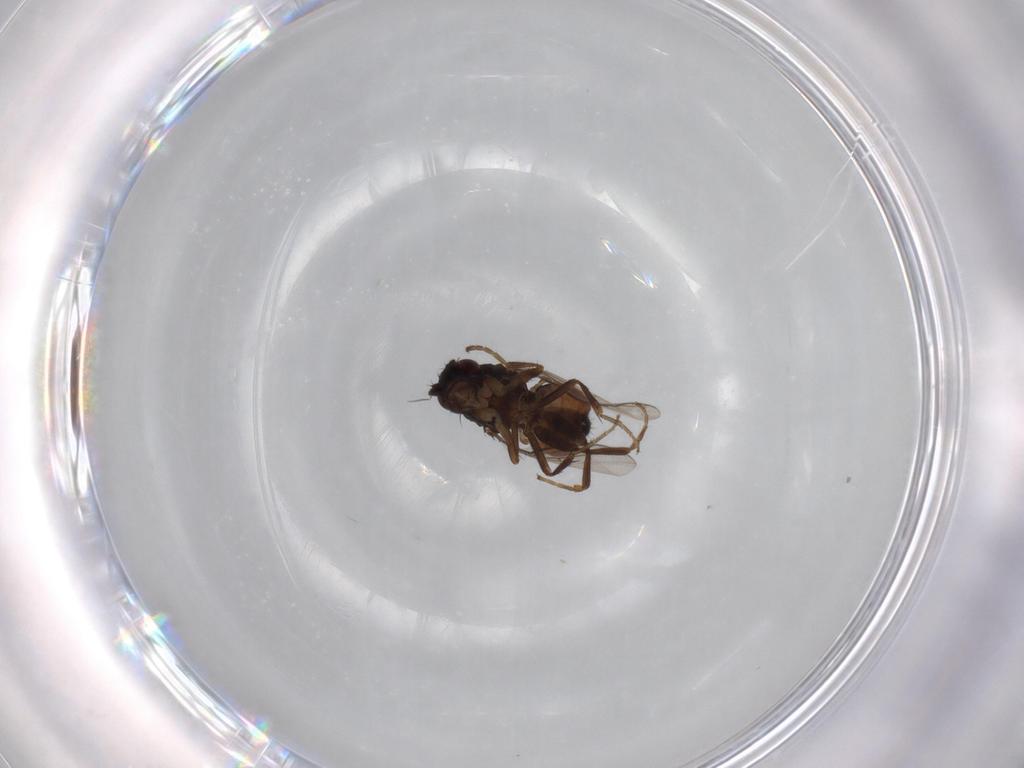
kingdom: Animalia
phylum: Arthropoda
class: Insecta
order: Diptera
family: Sphaeroceridae
